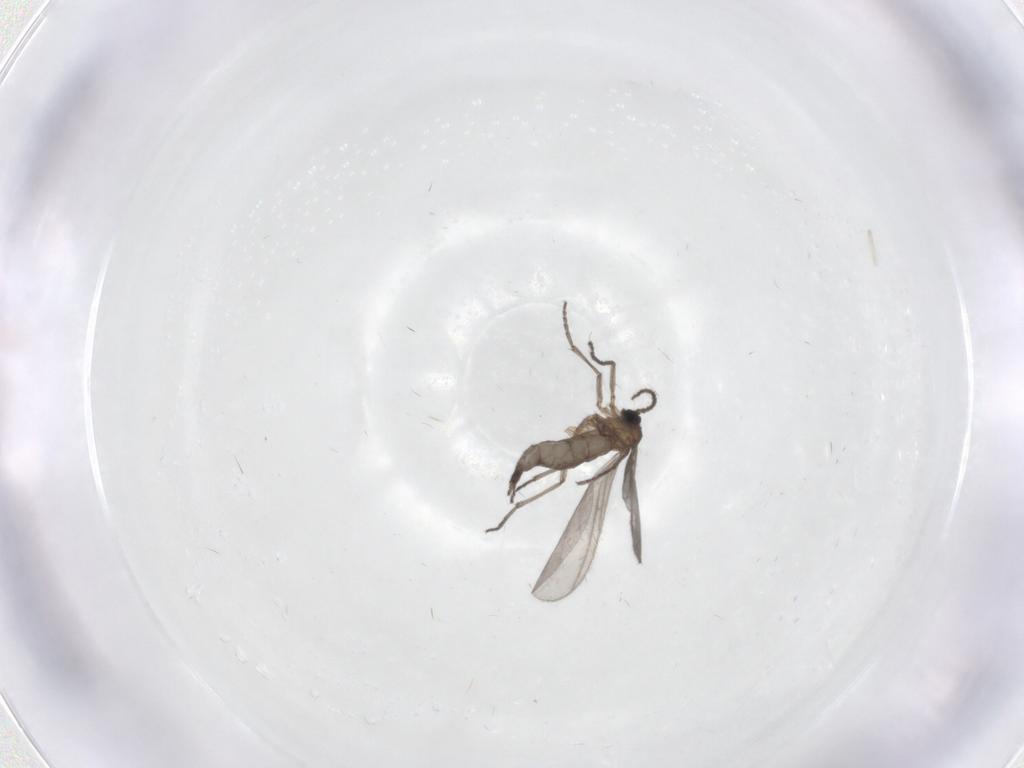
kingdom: Animalia
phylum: Arthropoda
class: Insecta
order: Diptera
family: Sciaridae
